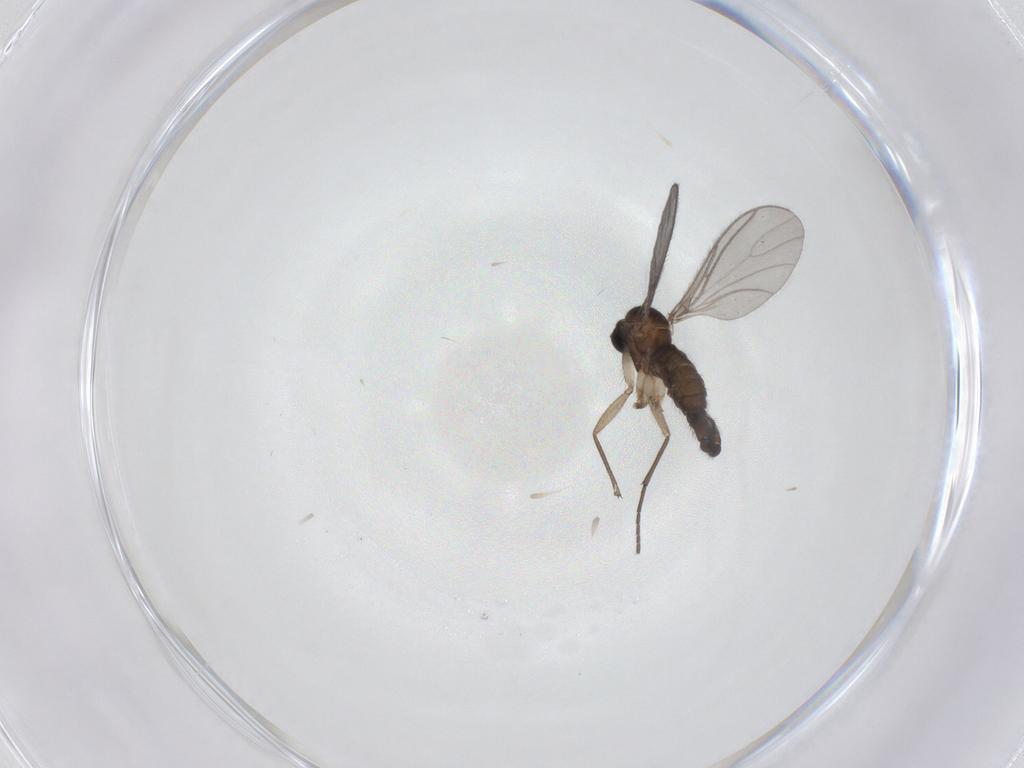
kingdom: Animalia
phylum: Arthropoda
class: Insecta
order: Diptera
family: Sciaridae
